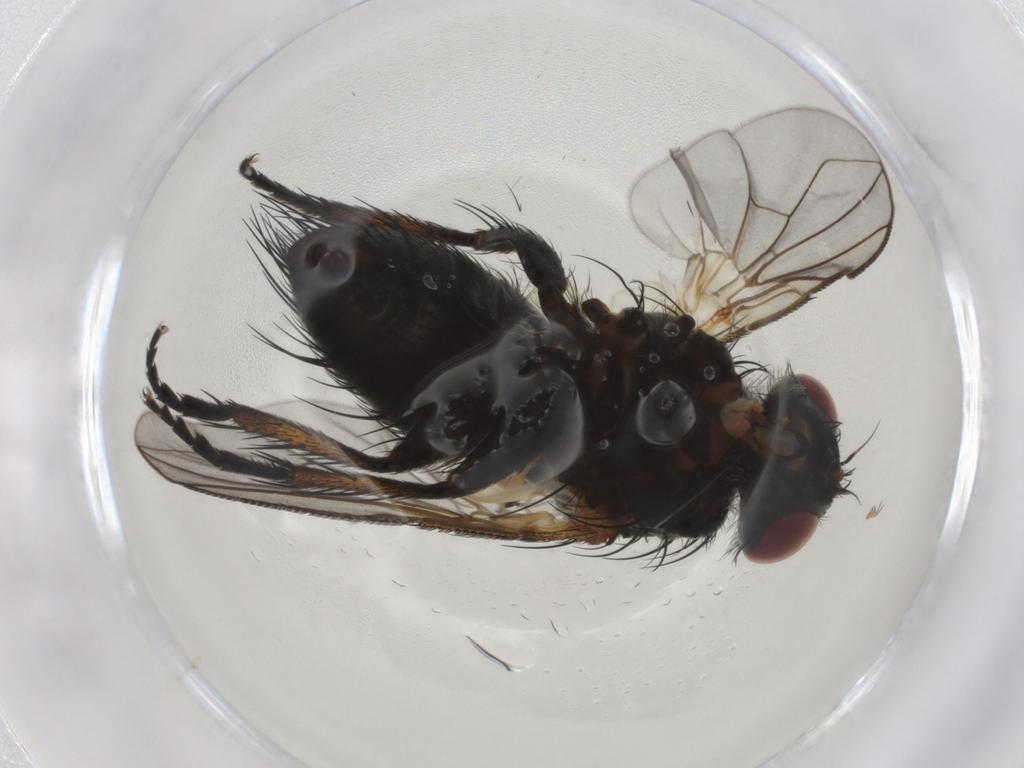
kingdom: Animalia
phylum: Arthropoda
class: Insecta
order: Diptera
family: Tachinidae
